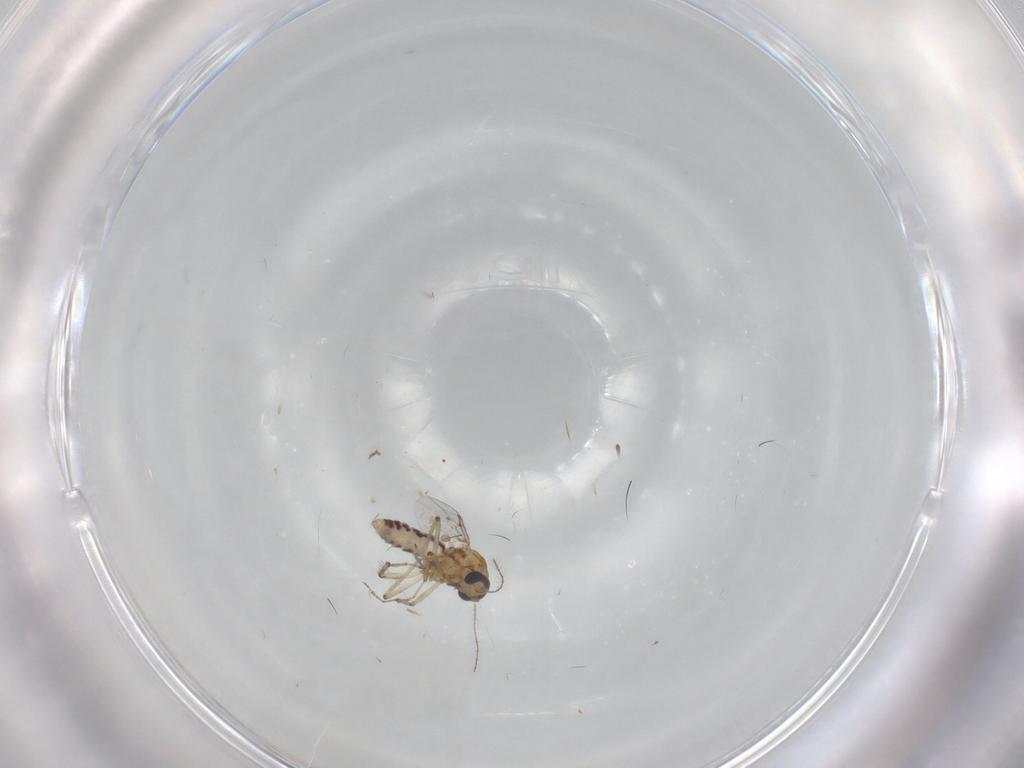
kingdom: Animalia
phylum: Arthropoda
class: Insecta
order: Diptera
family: Ceratopogonidae
